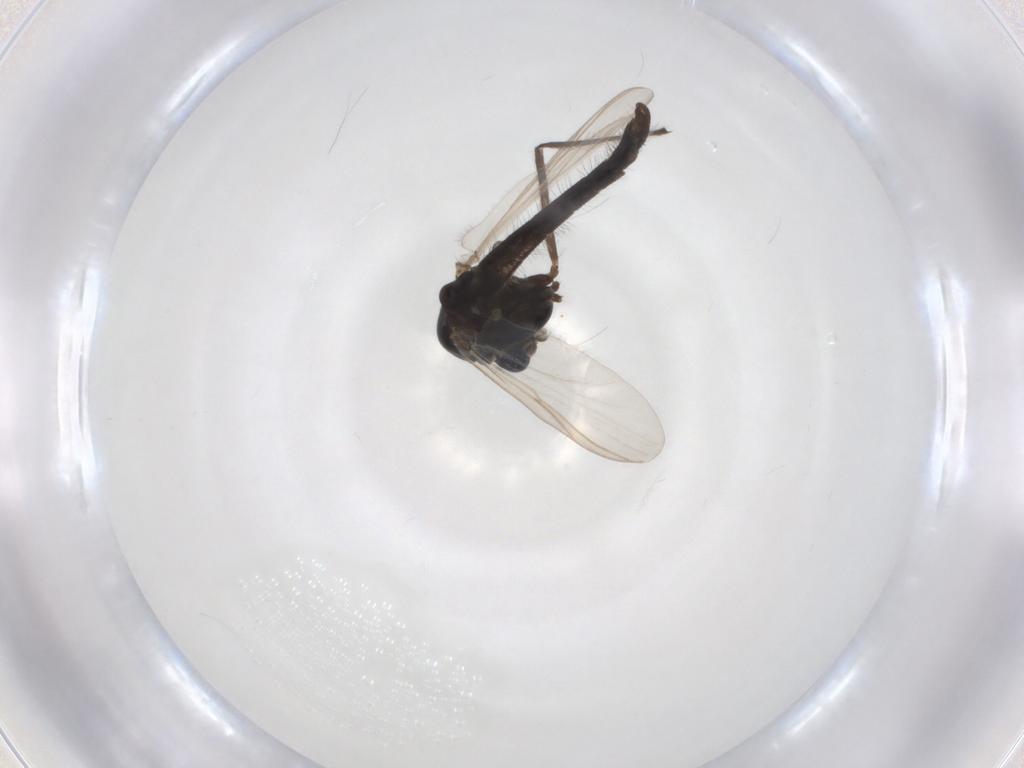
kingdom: Animalia
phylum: Arthropoda
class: Insecta
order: Diptera
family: Chironomidae
